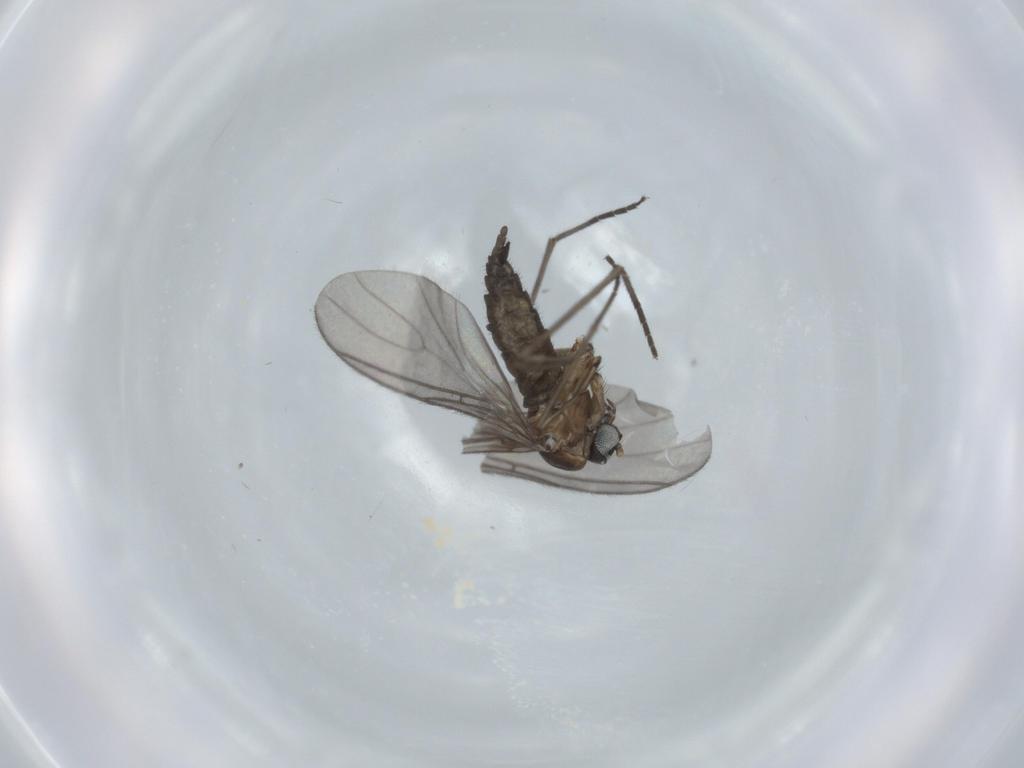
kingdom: Animalia
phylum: Arthropoda
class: Insecta
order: Diptera
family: Sciaridae
